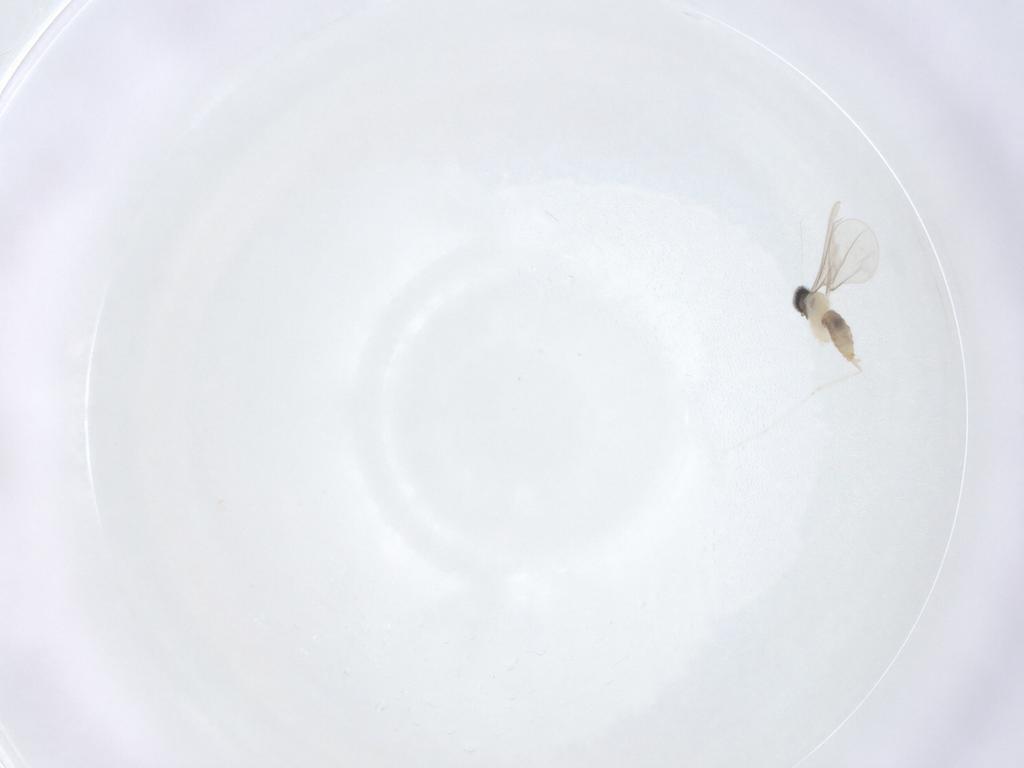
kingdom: Animalia
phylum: Arthropoda
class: Insecta
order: Diptera
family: Cecidomyiidae
